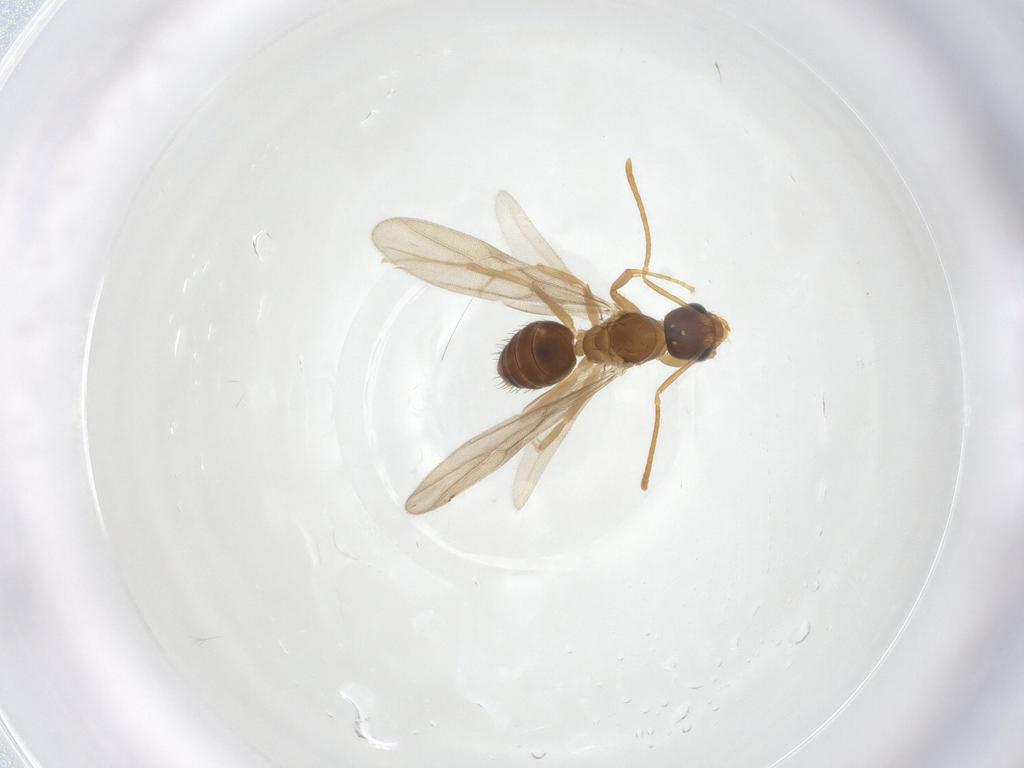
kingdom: Animalia
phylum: Arthropoda
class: Insecta
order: Hymenoptera
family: Formicidae
